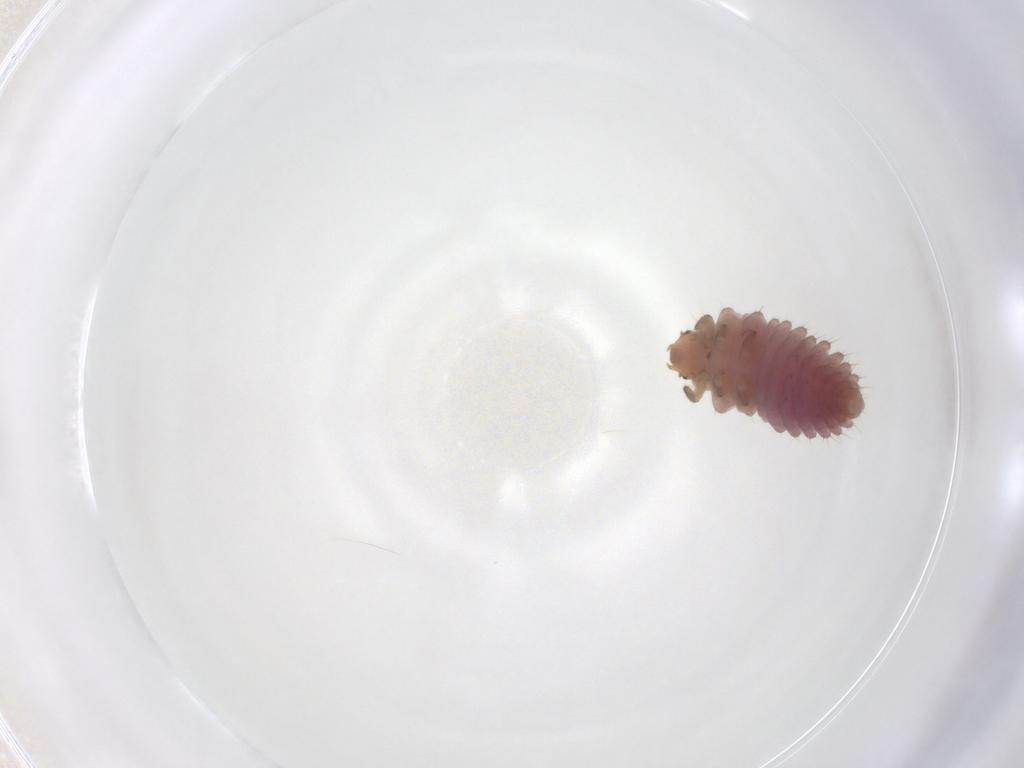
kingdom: Animalia
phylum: Arthropoda
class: Insecta
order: Coleoptera
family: Coccinellidae
